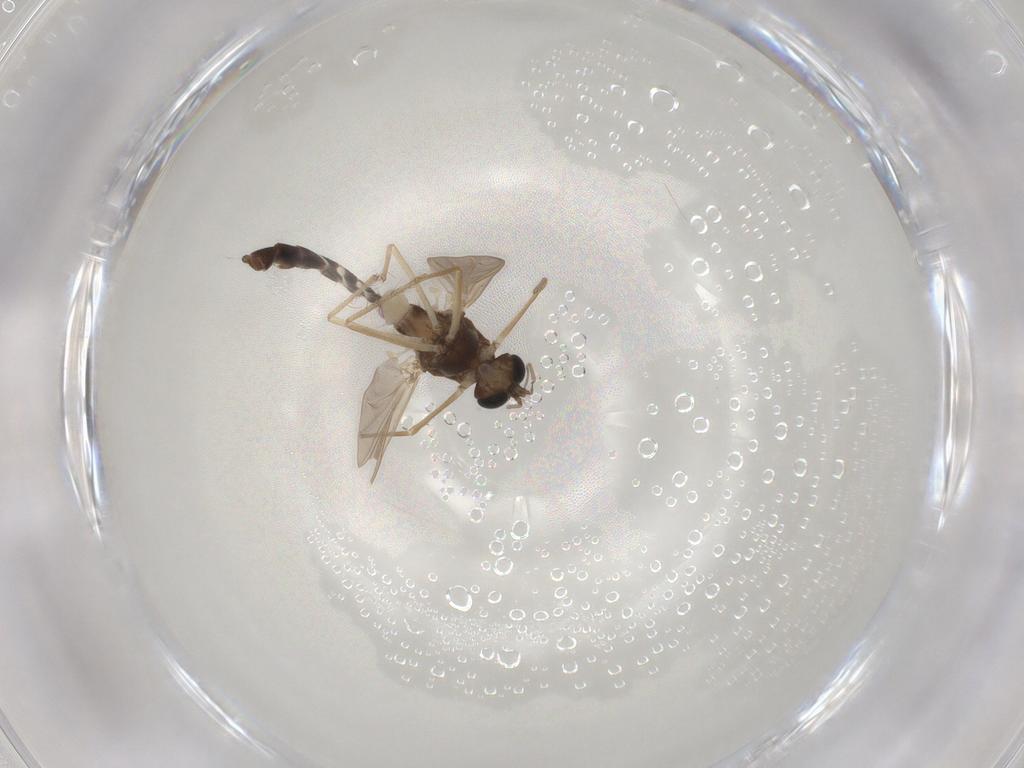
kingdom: Animalia
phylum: Arthropoda
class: Insecta
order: Diptera
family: Chironomidae
